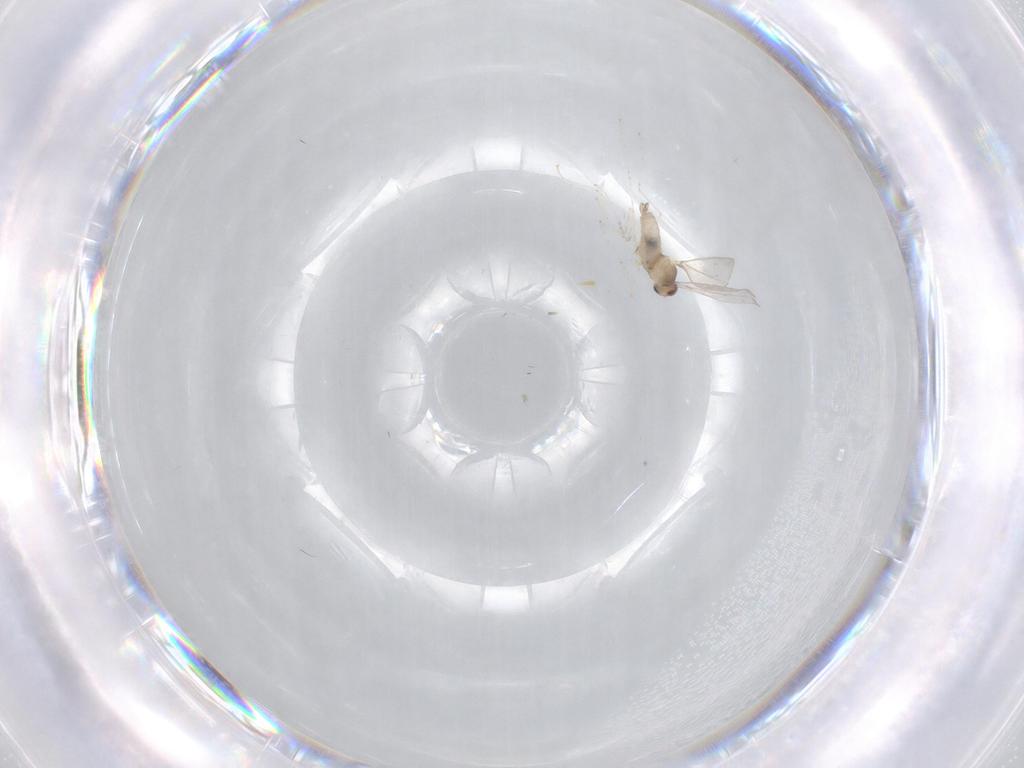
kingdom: Animalia
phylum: Arthropoda
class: Insecta
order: Diptera
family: Cecidomyiidae
